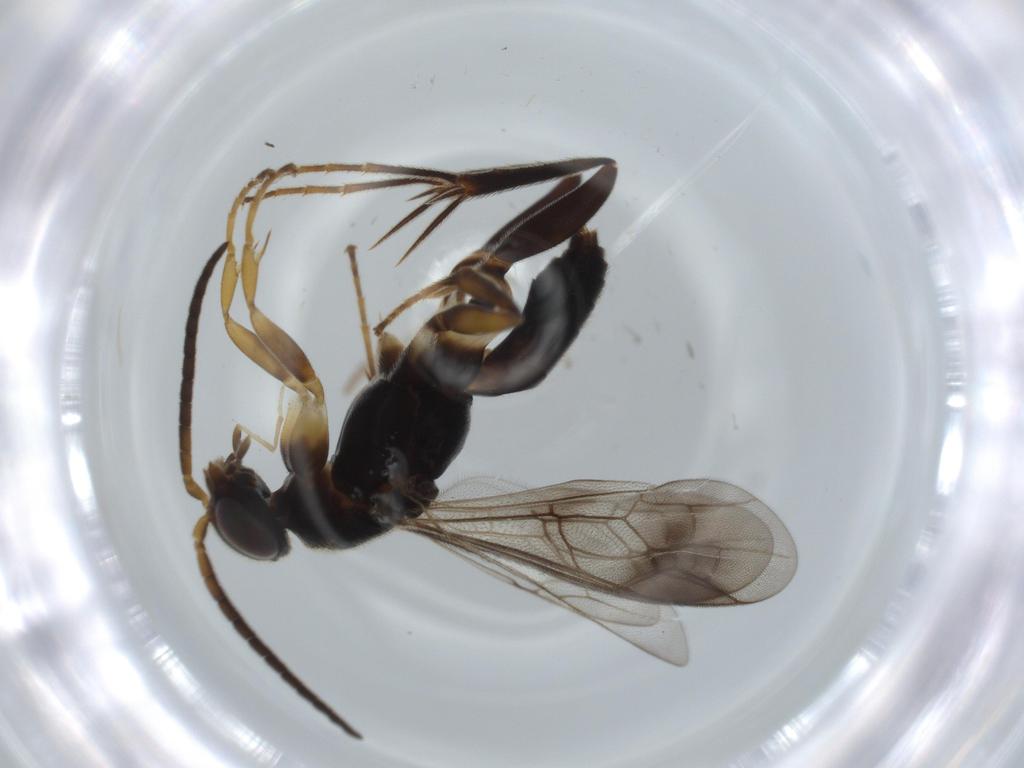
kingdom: Animalia
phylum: Arthropoda
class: Insecta
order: Hymenoptera
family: Pompilidae
